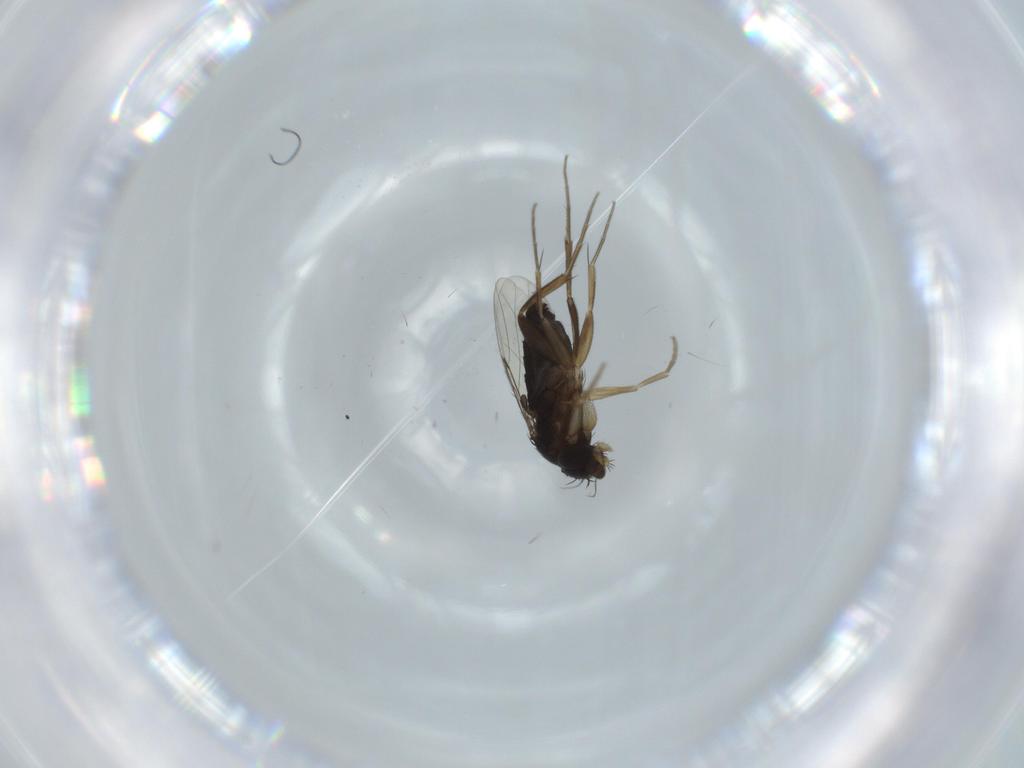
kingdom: Animalia
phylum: Arthropoda
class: Insecta
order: Diptera
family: Phoridae
